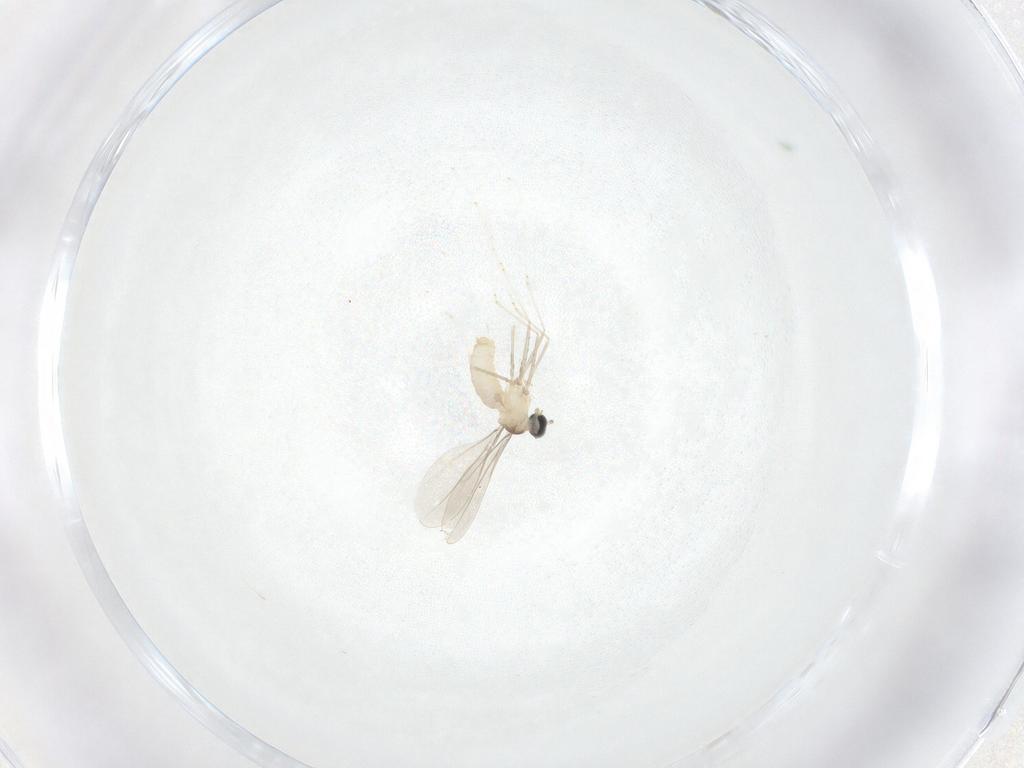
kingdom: Animalia
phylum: Arthropoda
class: Insecta
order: Diptera
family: Cecidomyiidae
